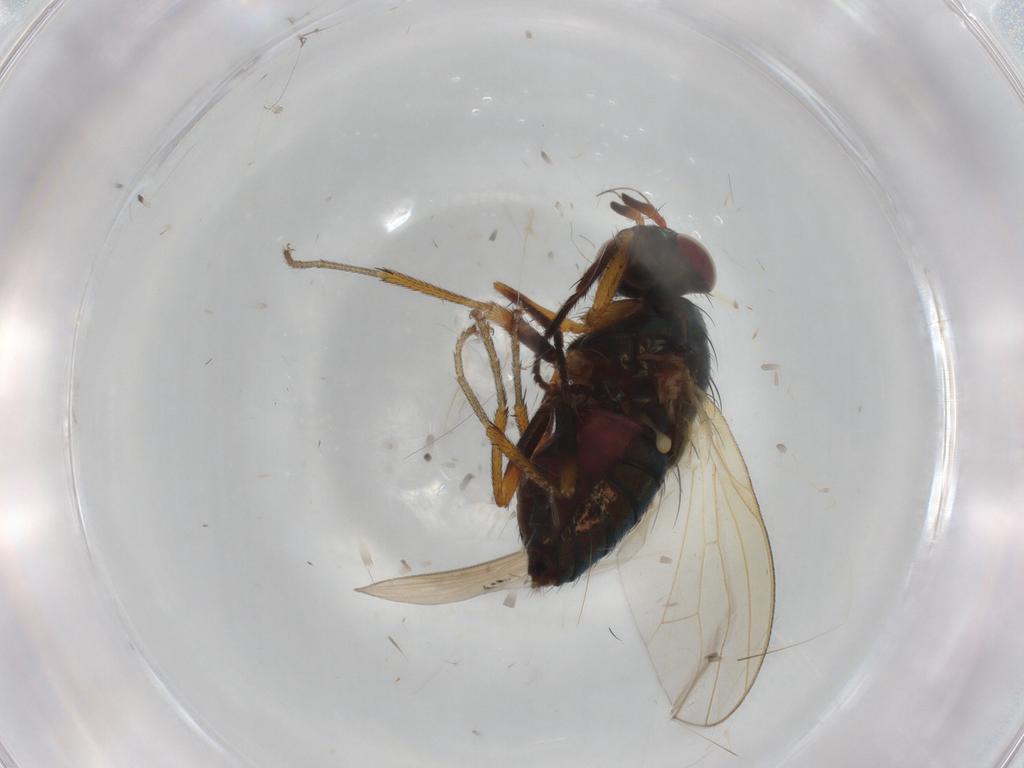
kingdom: Animalia
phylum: Arthropoda
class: Insecta
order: Diptera
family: Lauxaniidae
